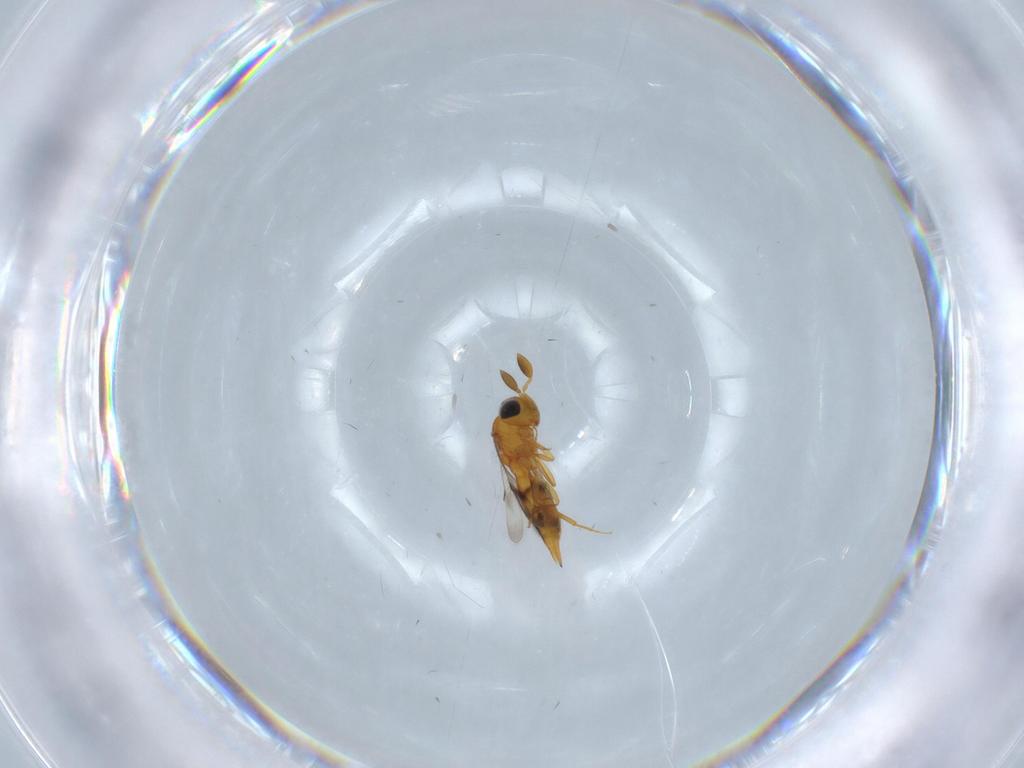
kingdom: Animalia
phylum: Arthropoda
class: Insecta
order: Hymenoptera
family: Scelionidae
